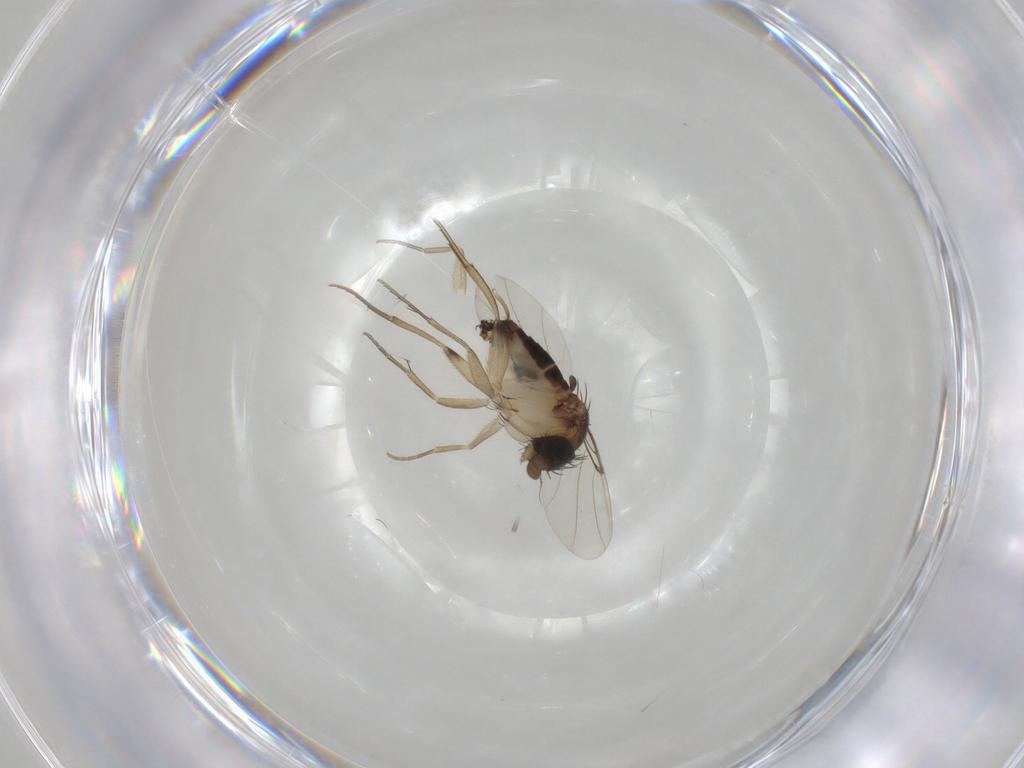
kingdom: Animalia
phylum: Arthropoda
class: Insecta
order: Diptera
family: Phoridae
